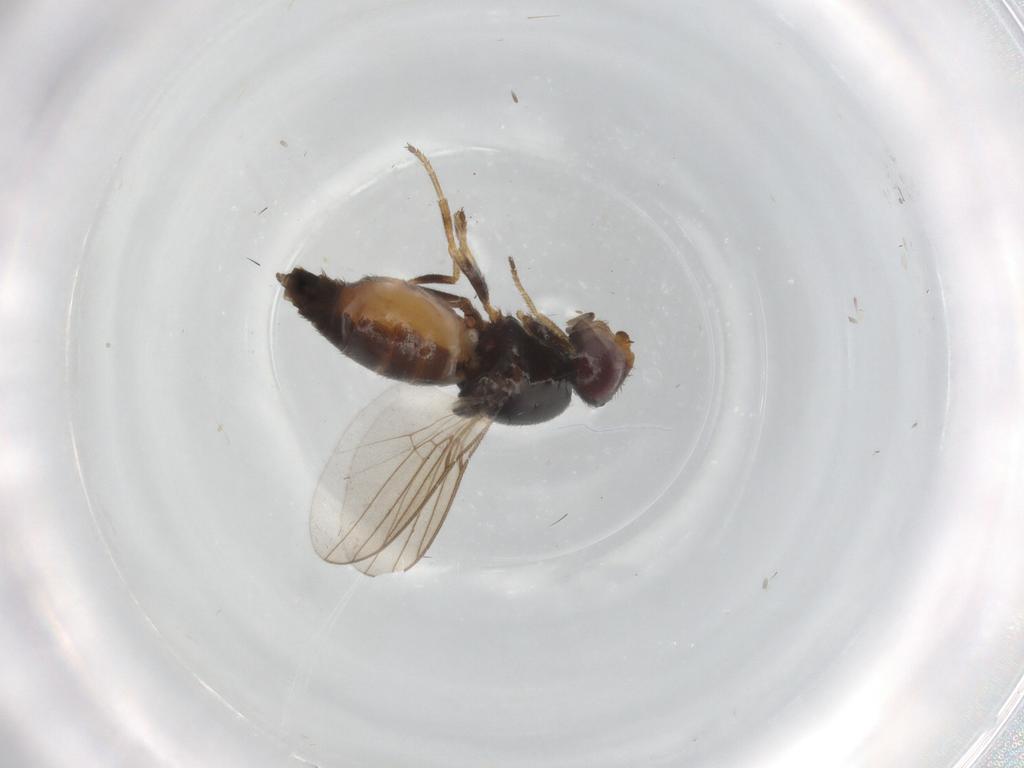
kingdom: Animalia
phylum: Arthropoda
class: Insecta
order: Diptera
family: Chloropidae
